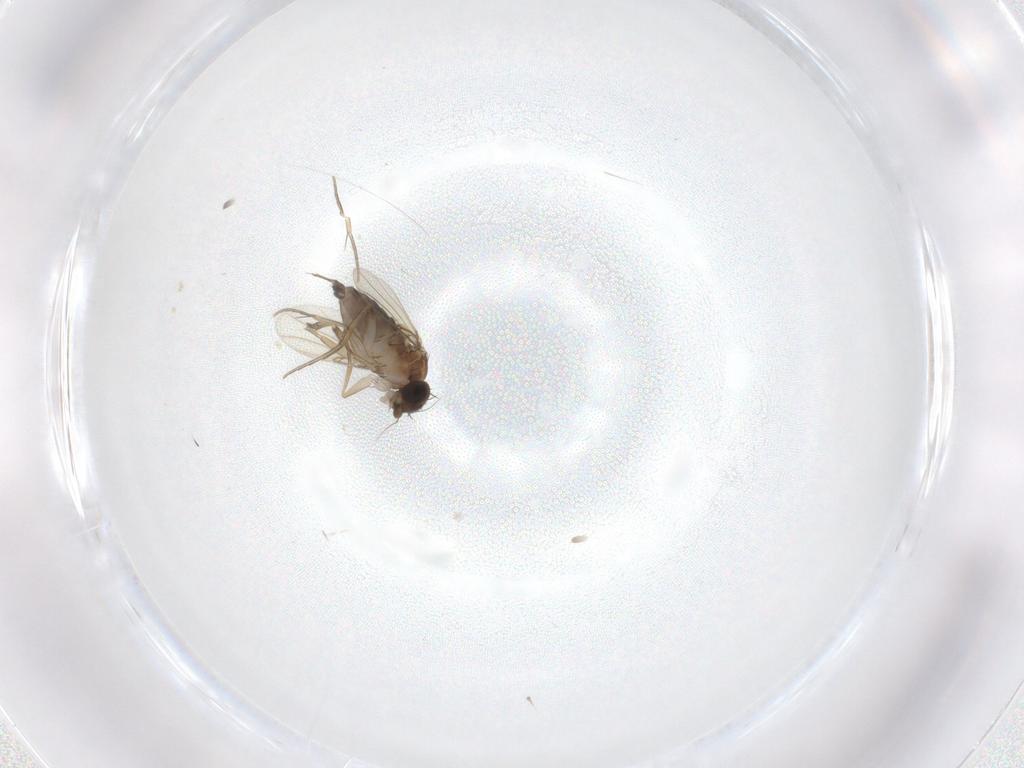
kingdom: Animalia
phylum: Arthropoda
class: Insecta
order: Diptera
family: Phoridae
